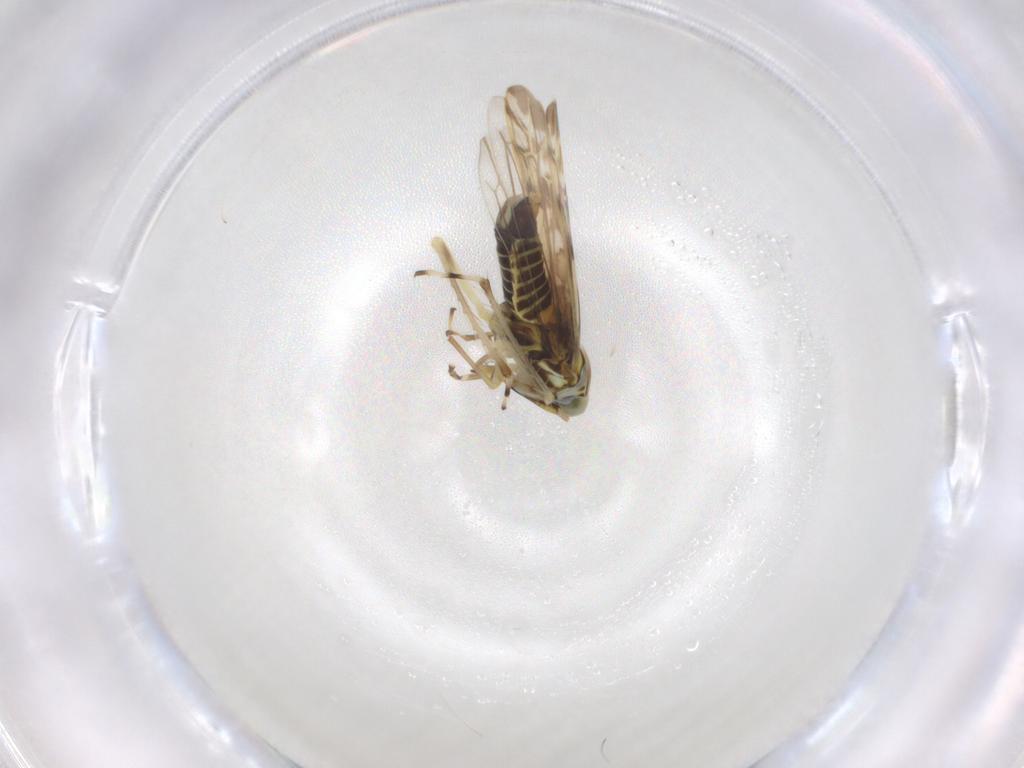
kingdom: Animalia
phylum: Arthropoda
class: Insecta
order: Hemiptera
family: Cicadellidae
